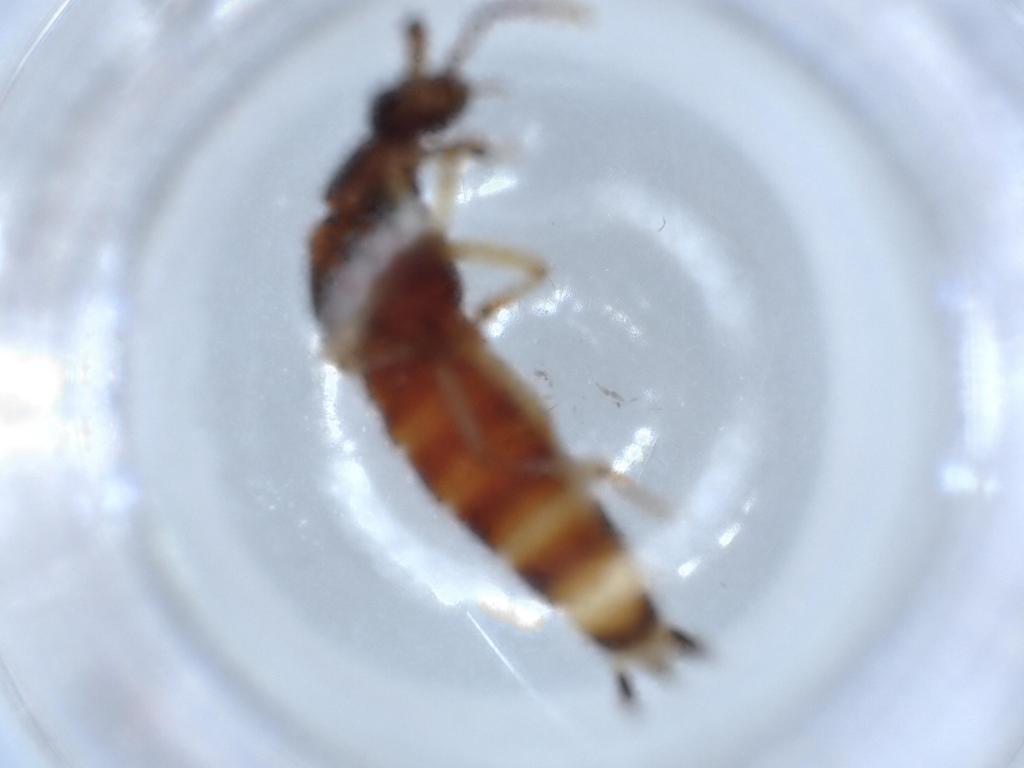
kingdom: Animalia
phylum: Arthropoda
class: Insecta
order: Coleoptera
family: Staphylinidae
